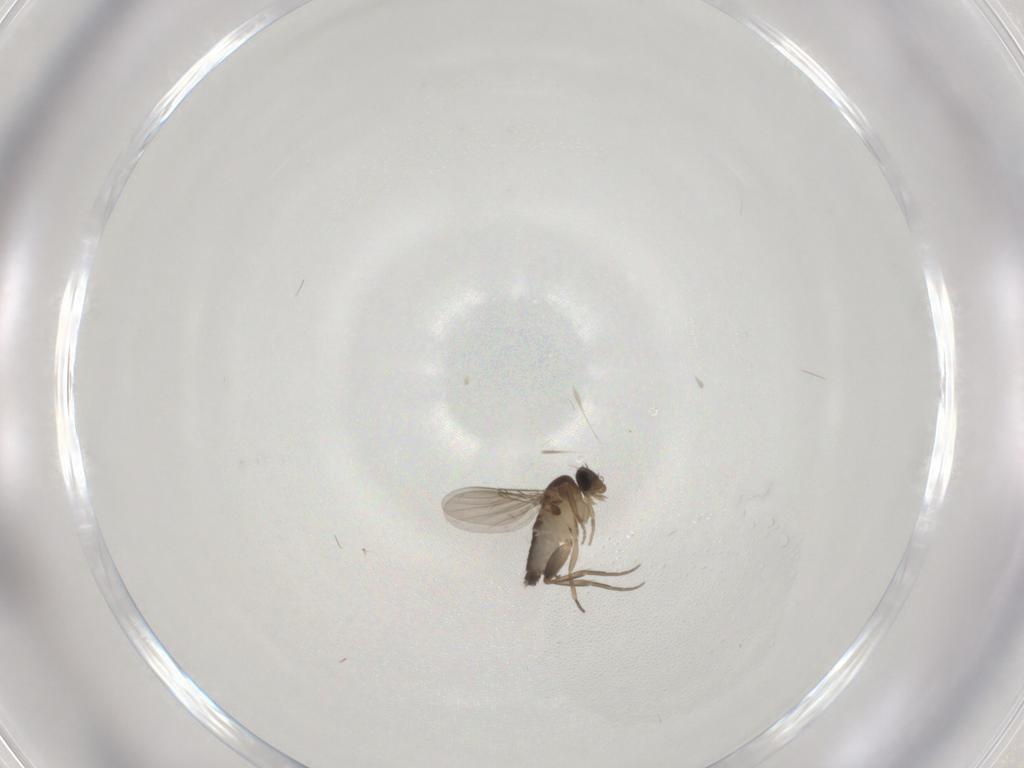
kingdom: Animalia
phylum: Arthropoda
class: Insecta
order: Diptera
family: Phoridae
